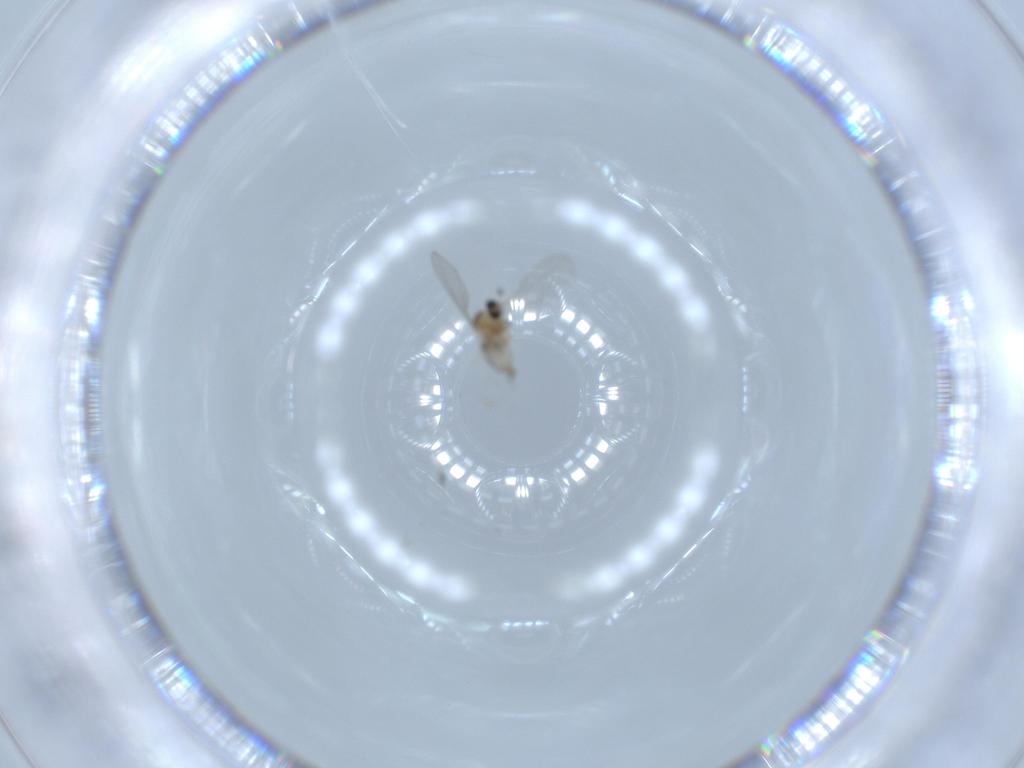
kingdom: Animalia
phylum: Arthropoda
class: Insecta
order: Diptera
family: Cecidomyiidae
